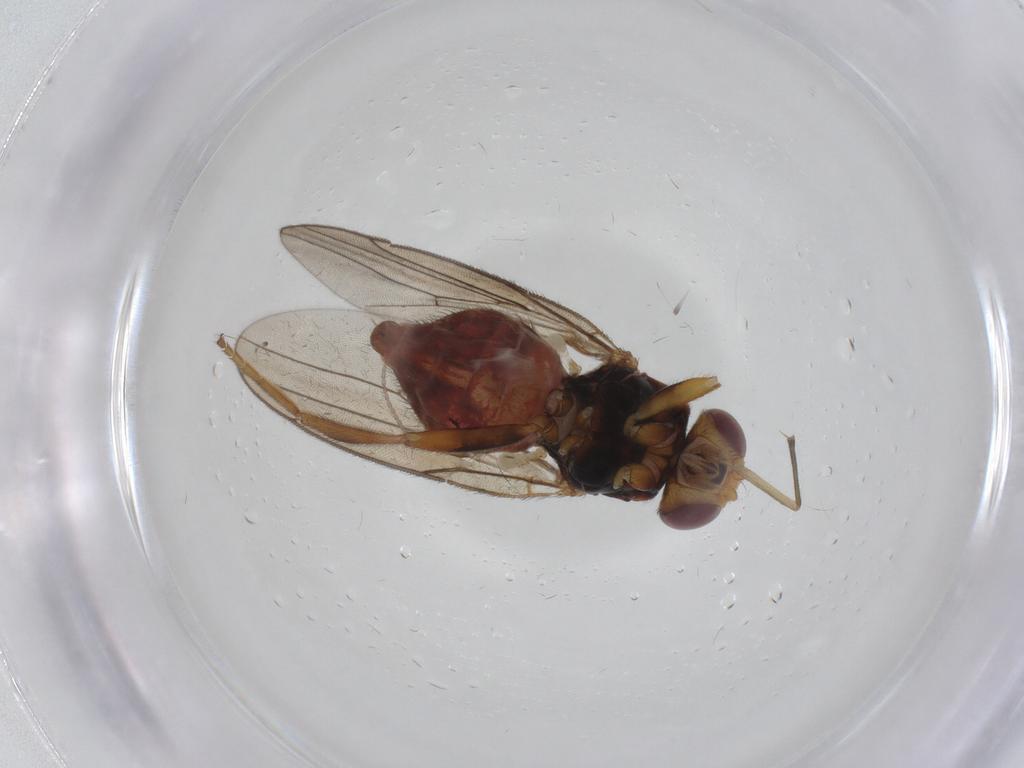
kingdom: Animalia
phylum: Arthropoda
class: Insecta
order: Diptera
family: Chloropidae
